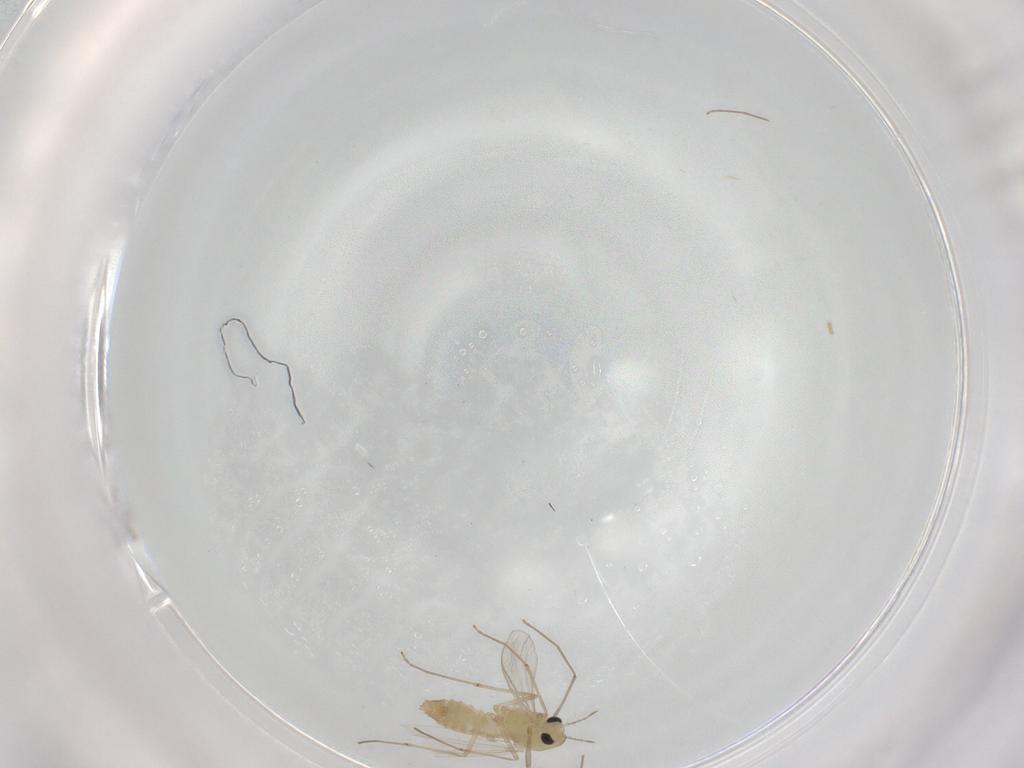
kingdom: Animalia
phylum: Arthropoda
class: Insecta
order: Diptera
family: Chironomidae
